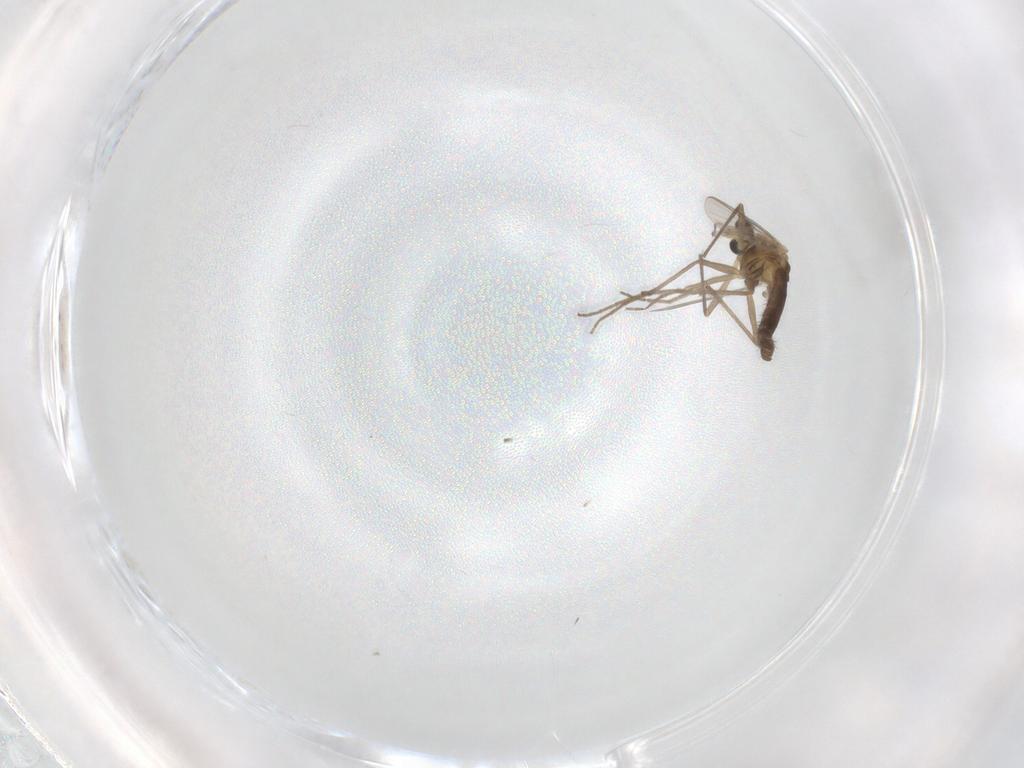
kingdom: Animalia
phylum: Arthropoda
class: Insecta
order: Diptera
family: Chironomidae
